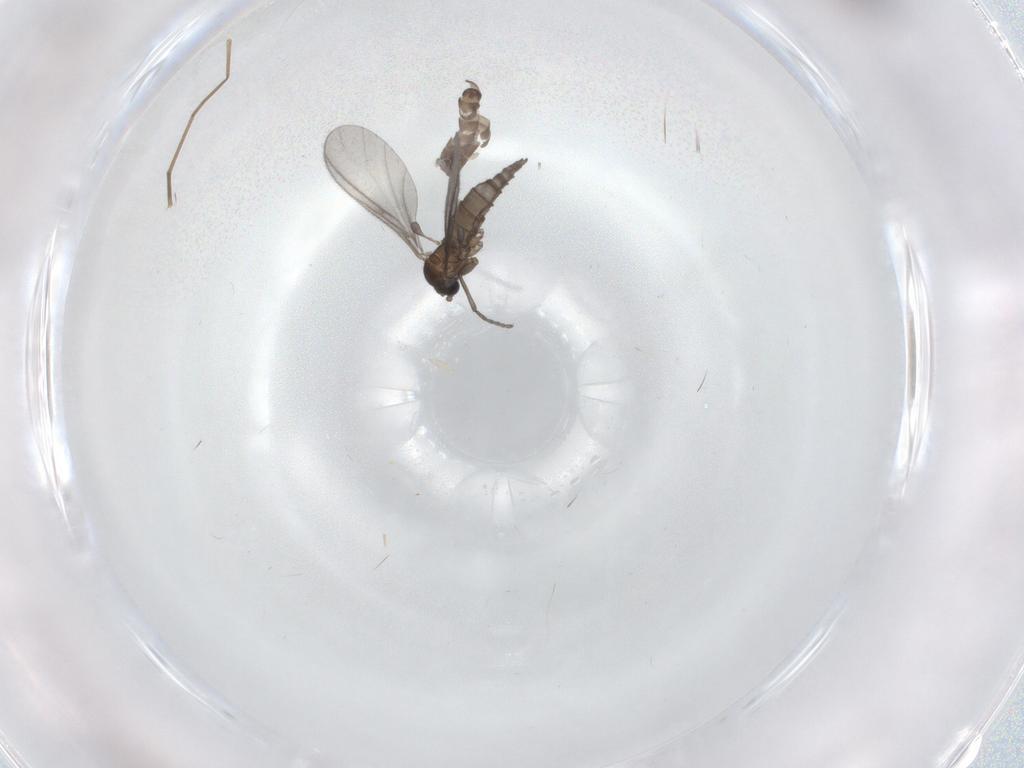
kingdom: Animalia
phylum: Arthropoda
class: Insecta
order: Diptera
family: Sciaridae
